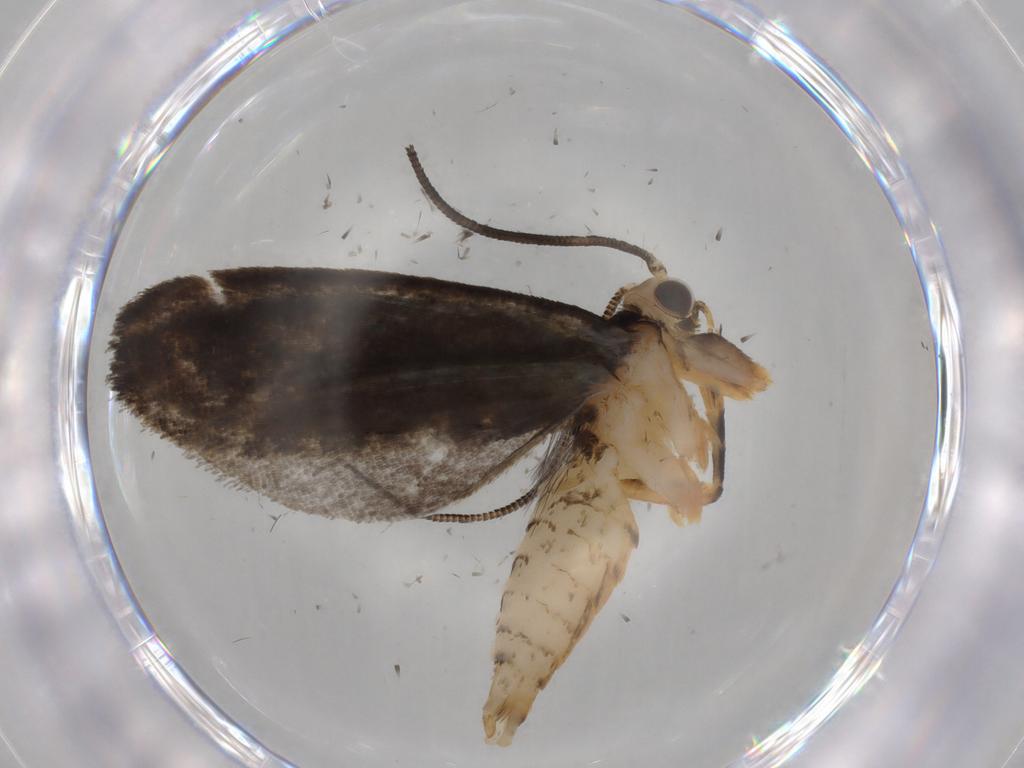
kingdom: Animalia
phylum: Arthropoda
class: Insecta
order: Lepidoptera
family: Tineidae
